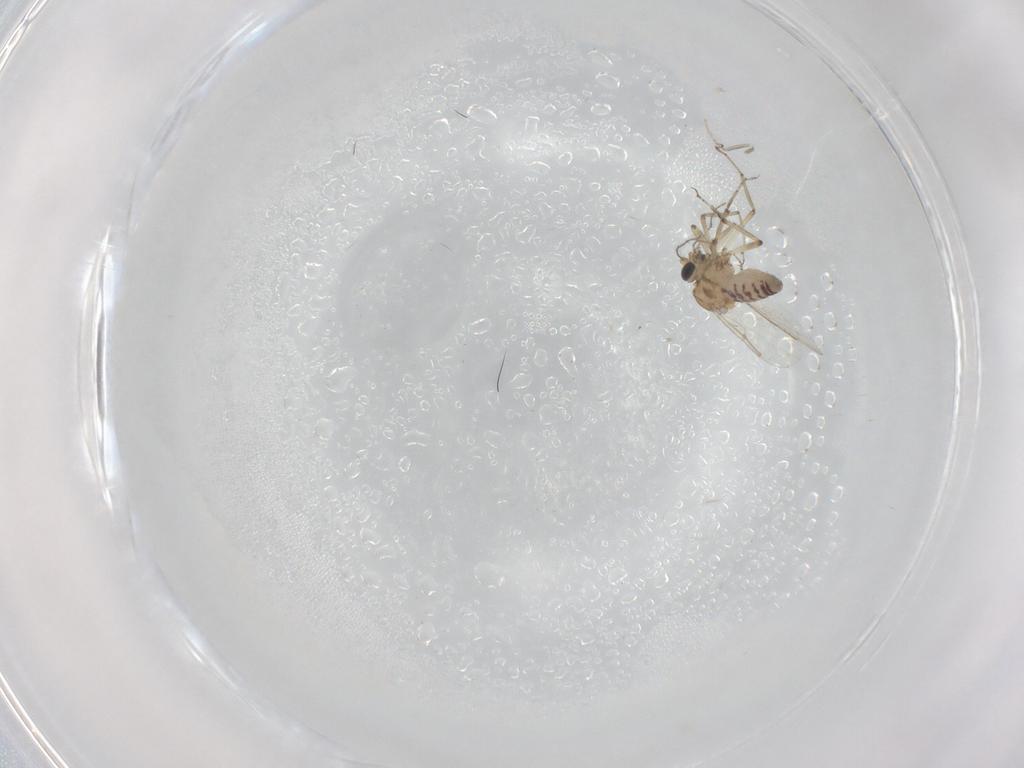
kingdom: Animalia
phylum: Arthropoda
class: Insecta
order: Diptera
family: Ceratopogonidae
